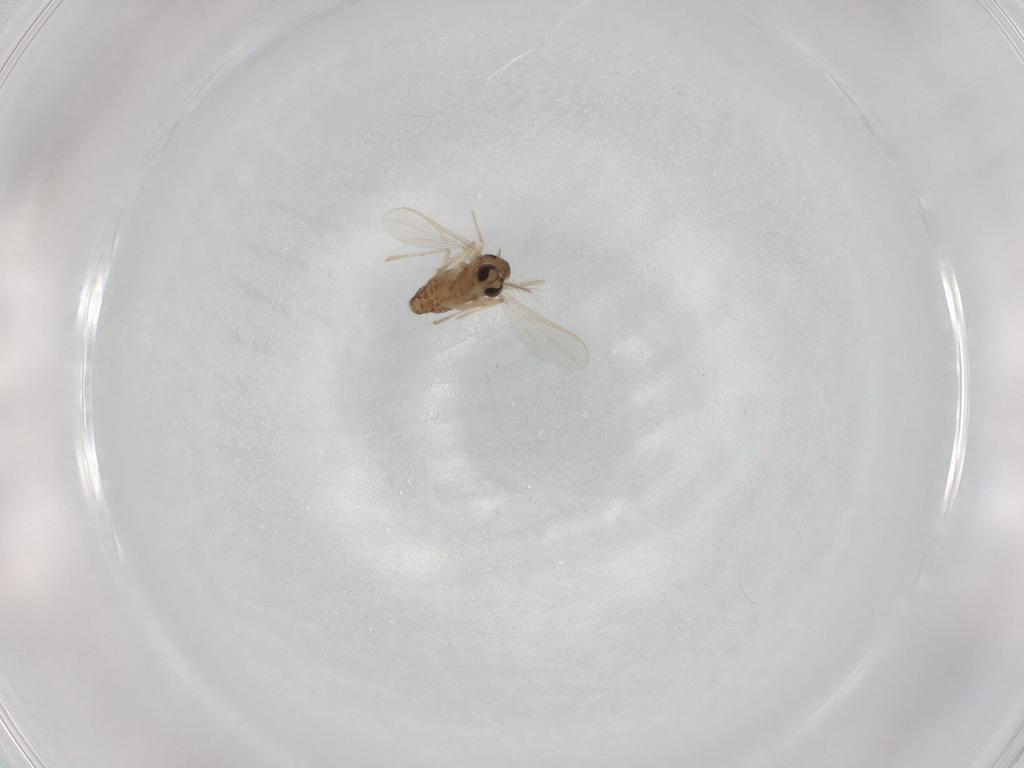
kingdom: Animalia
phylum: Arthropoda
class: Insecta
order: Diptera
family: Chironomidae
